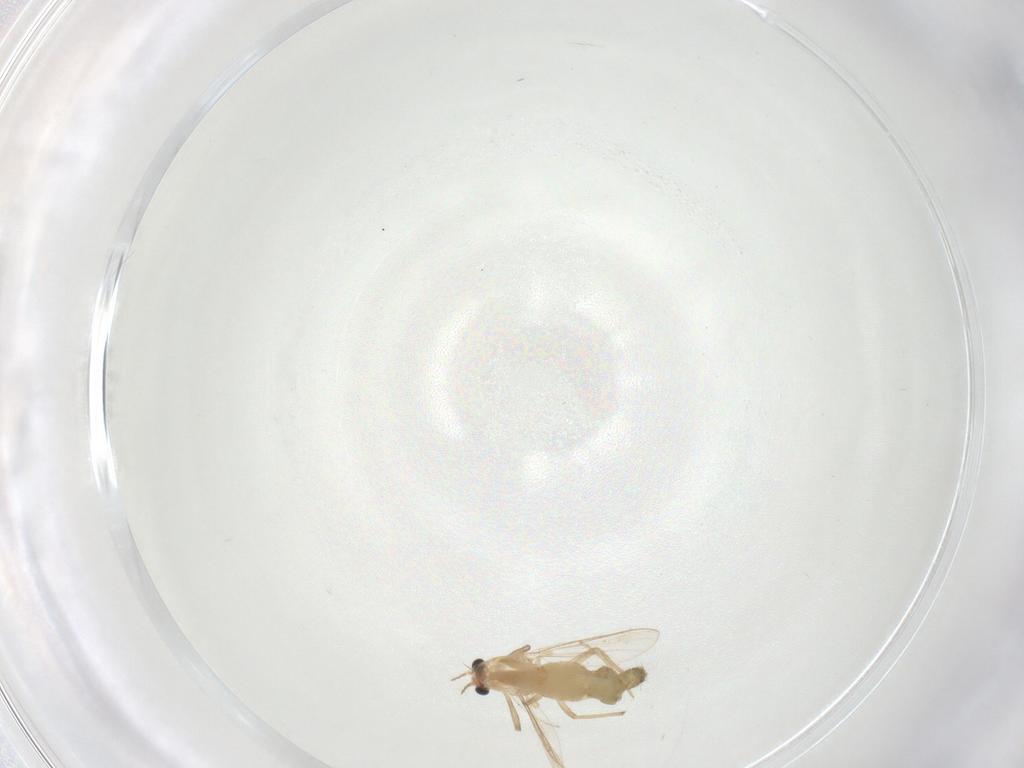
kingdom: Animalia
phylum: Arthropoda
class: Insecta
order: Diptera
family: Chironomidae
